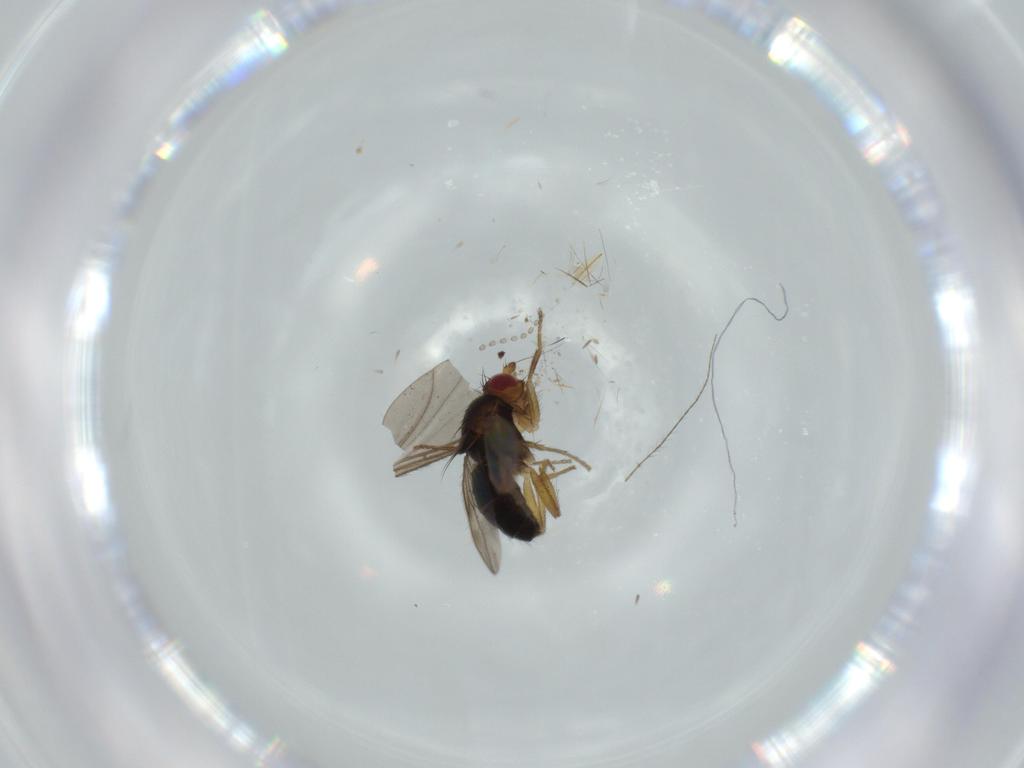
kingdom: Animalia
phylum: Arthropoda
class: Insecta
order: Diptera
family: Sphaeroceridae
